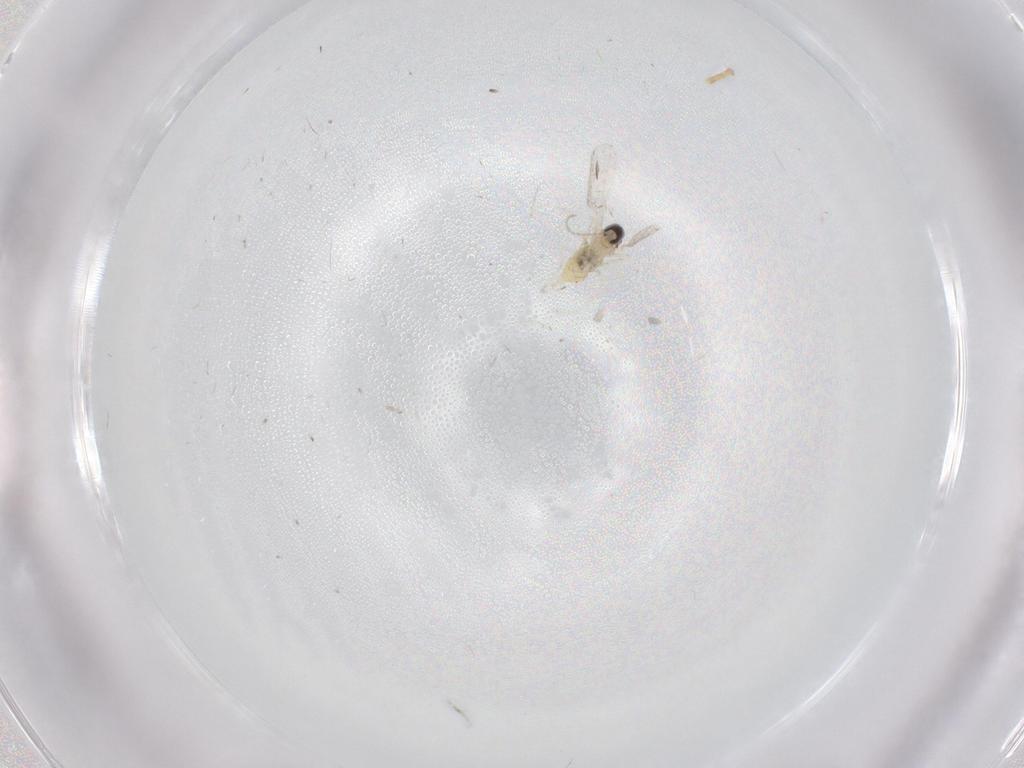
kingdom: Animalia
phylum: Arthropoda
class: Insecta
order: Diptera
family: Cecidomyiidae
